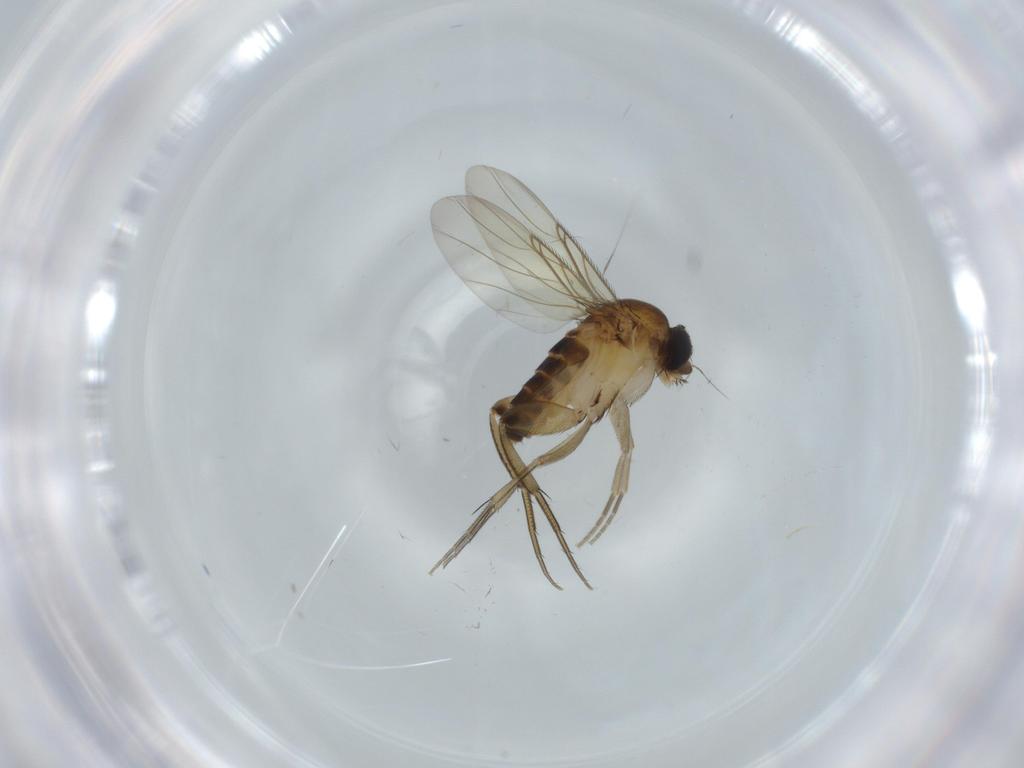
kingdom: Animalia
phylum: Arthropoda
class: Insecta
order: Diptera
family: Phoridae
